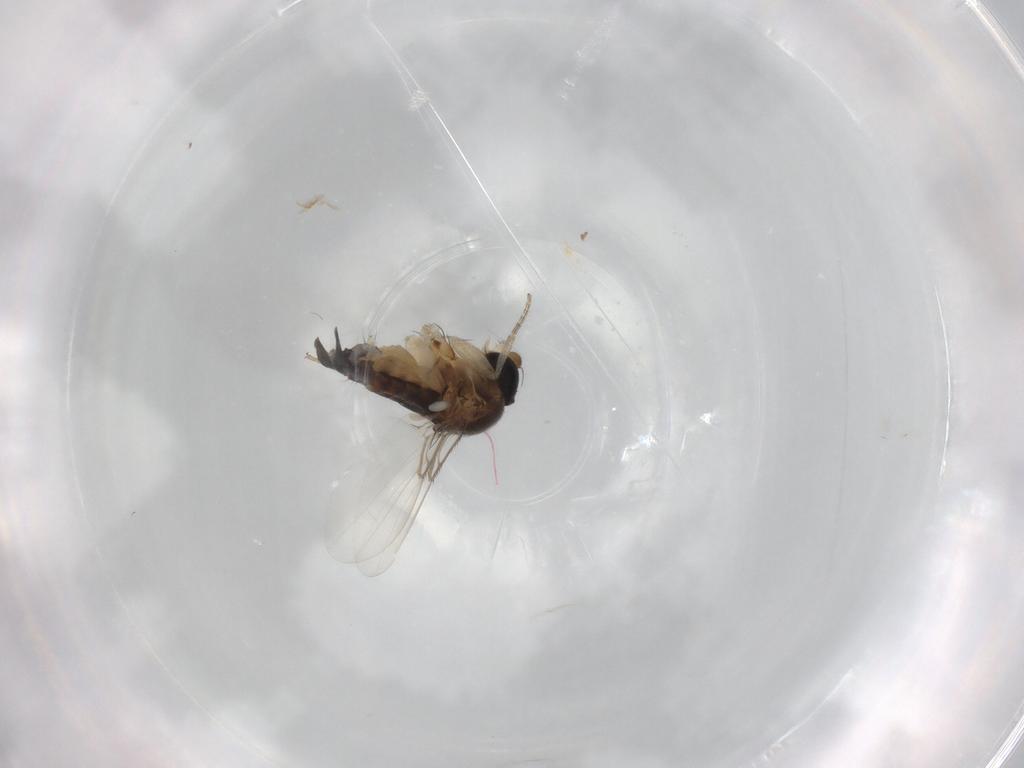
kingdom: Animalia
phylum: Arthropoda
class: Insecta
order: Diptera
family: Phoridae
